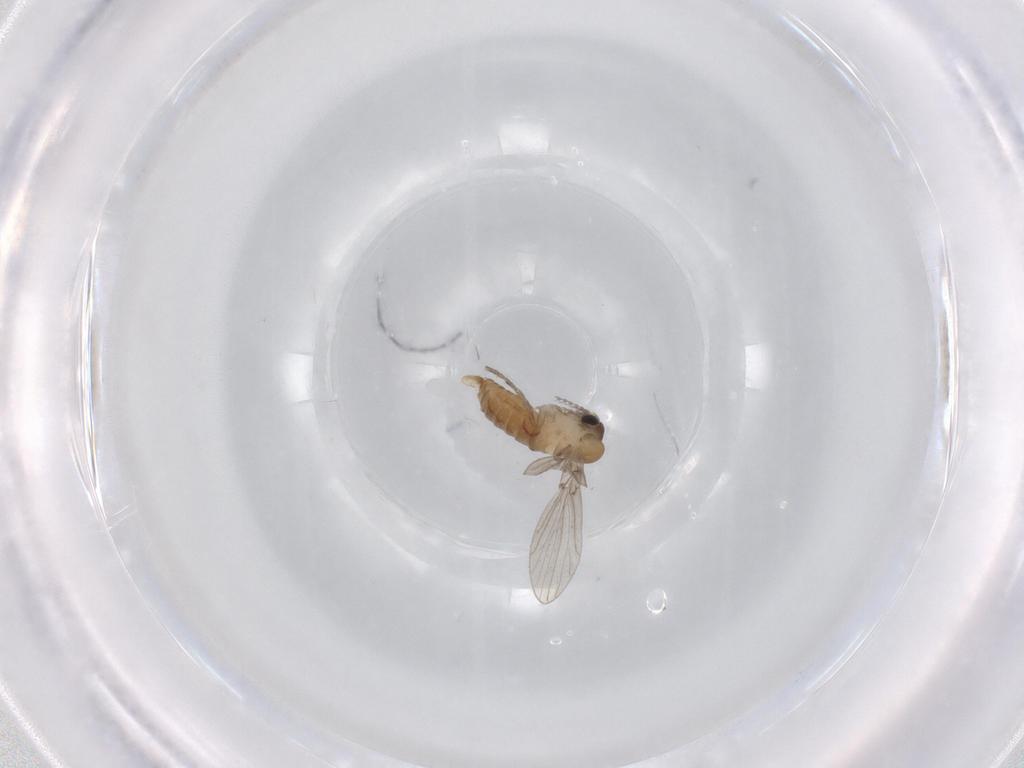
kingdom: Animalia
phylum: Arthropoda
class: Insecta
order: Diptera
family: Psychodidae
